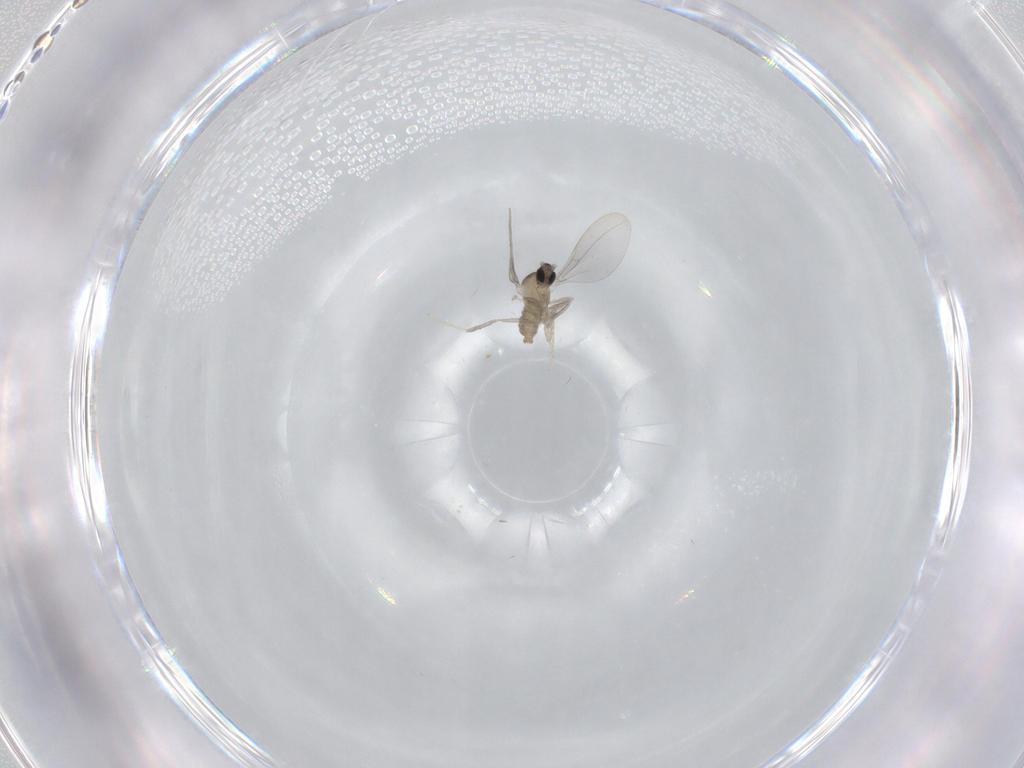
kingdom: Animalia
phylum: Arthropoda
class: Insecta
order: Diptera
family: Cecidomyiidae
